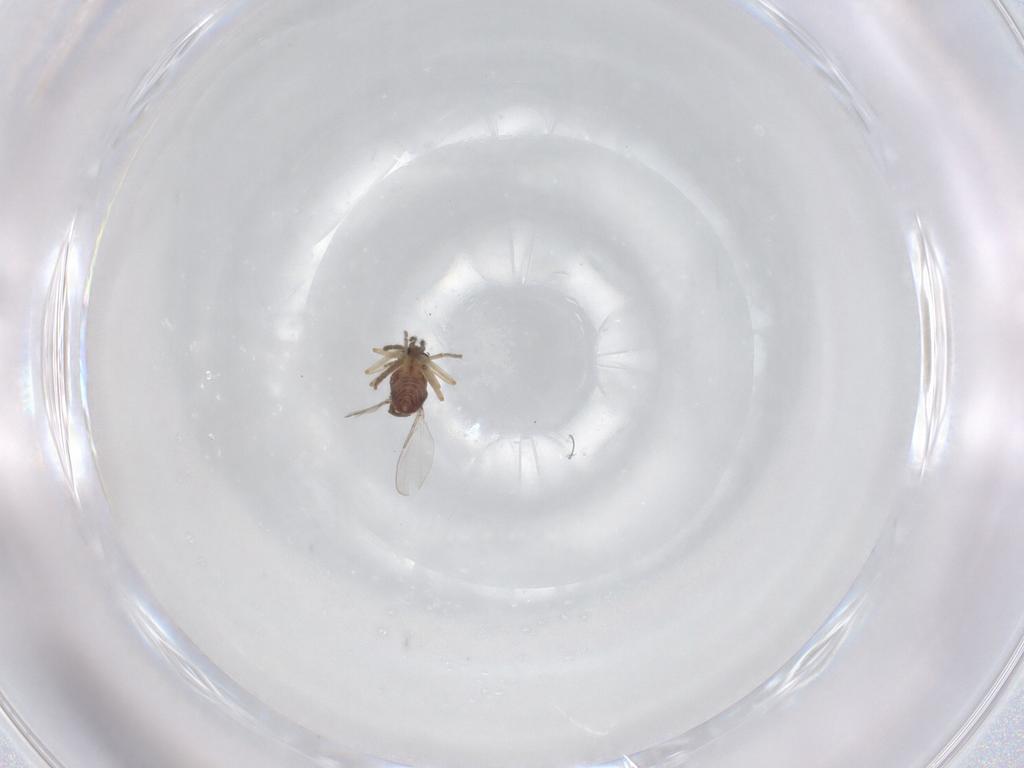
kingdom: Animalia
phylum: Arthropoda
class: Insecta
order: Diptera
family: Ceratopogonidae
